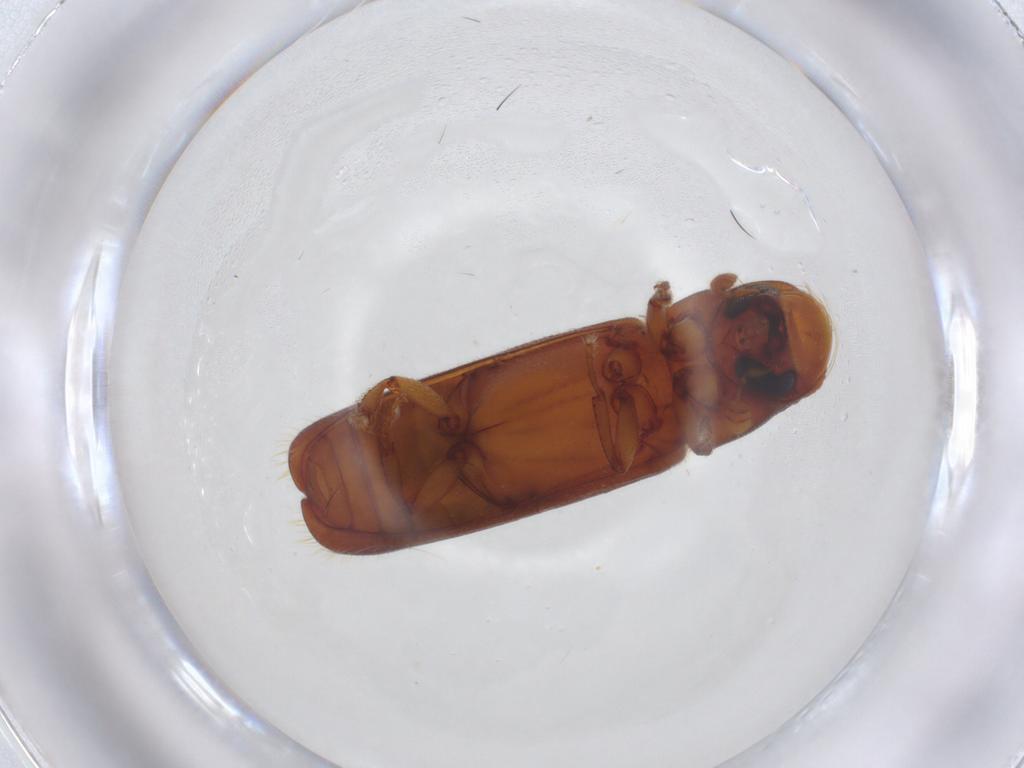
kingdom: Animalia
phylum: Arthropoda
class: Insecta
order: Coleoptera
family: Curculionidae
